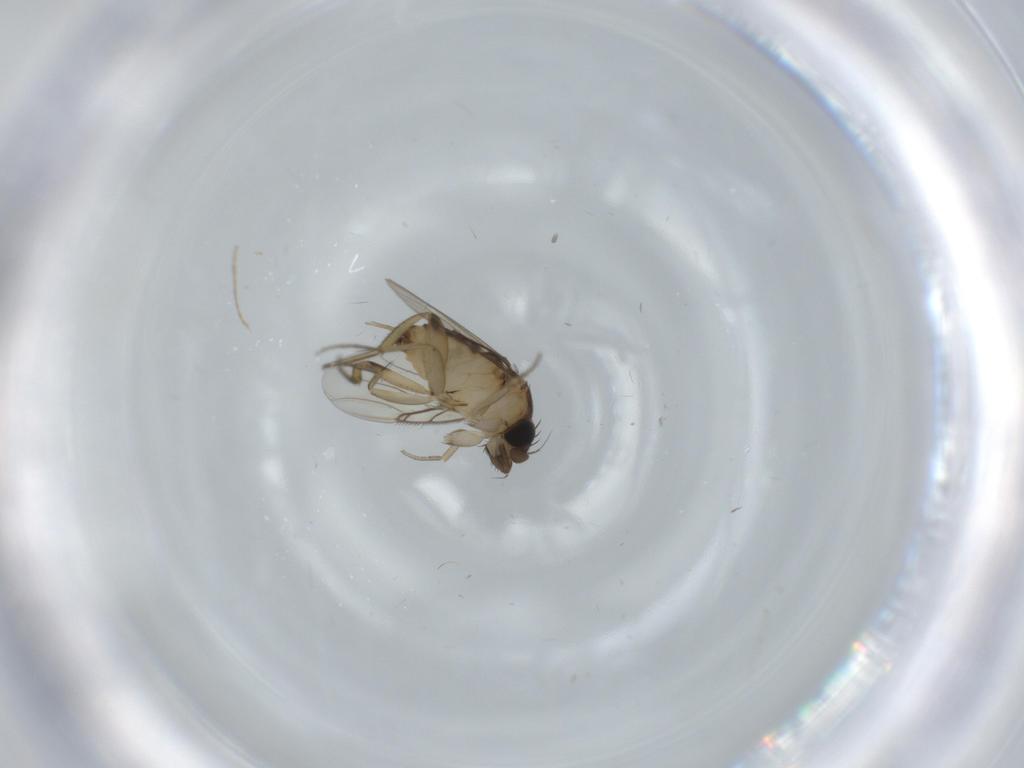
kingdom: Animalia
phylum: Arthropoda
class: Insecta
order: Diptera
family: Phoridae
